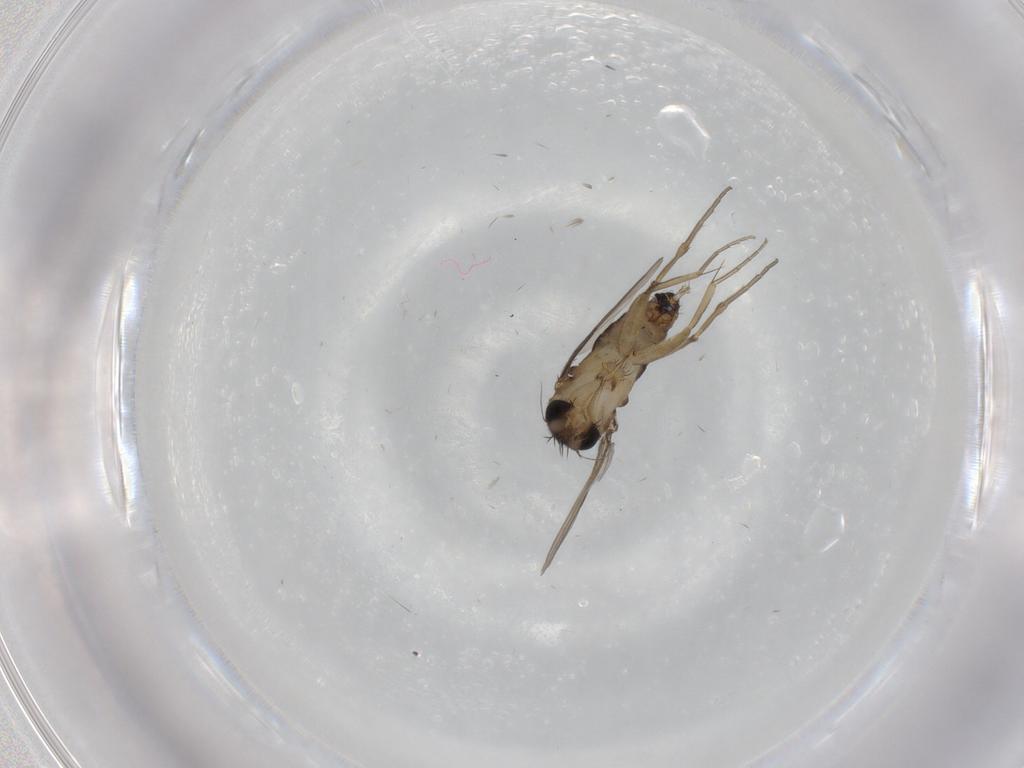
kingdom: Animalia
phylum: Arthropoda
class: Insecta
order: Diptera
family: Phoridae
